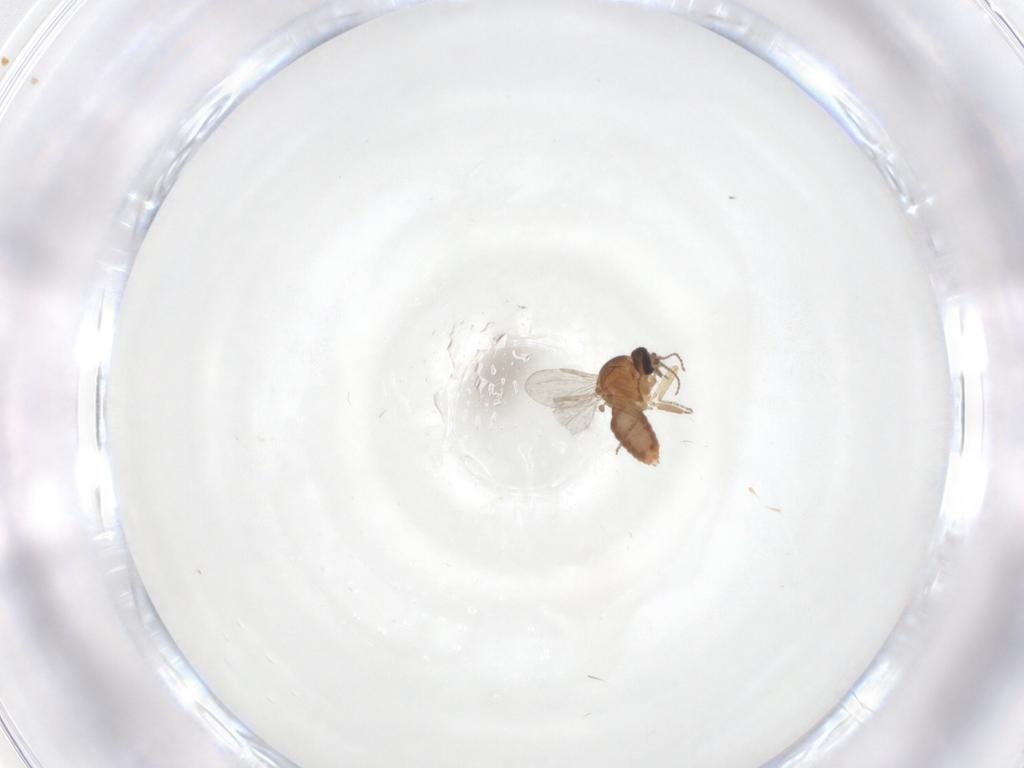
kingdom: Animalia
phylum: Arthropoda
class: Insecta
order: Diptera
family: Ceratopogonidae
